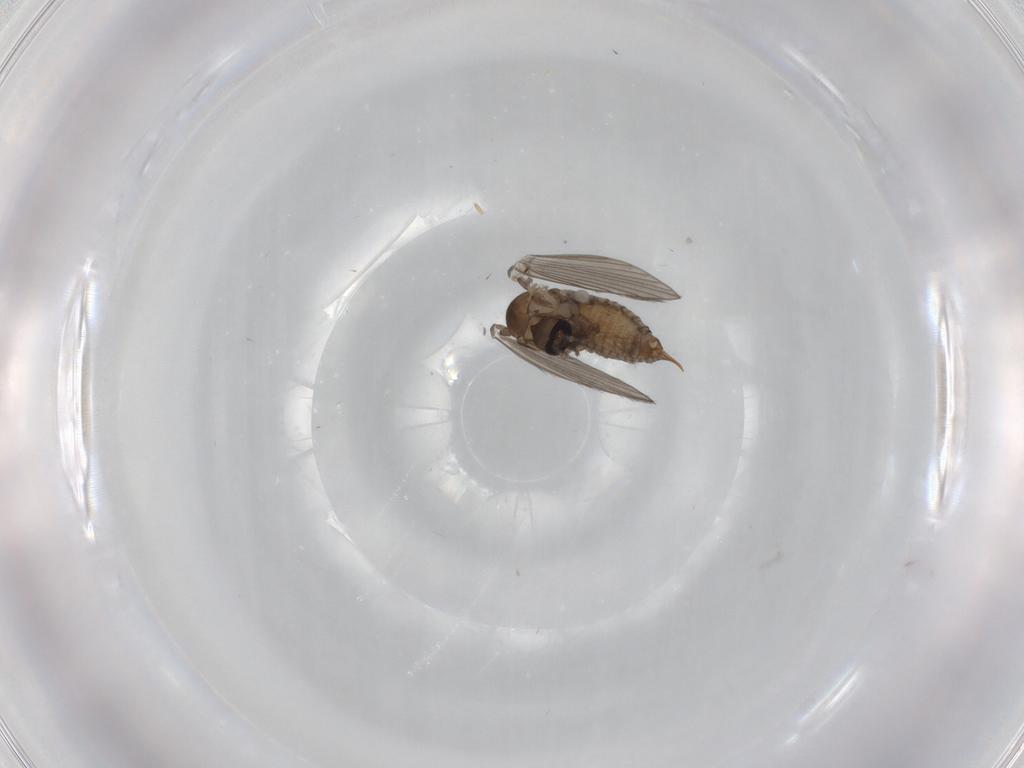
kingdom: Animalia
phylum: Arthropoda
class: Insecta
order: Diptera
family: Psychodidae
